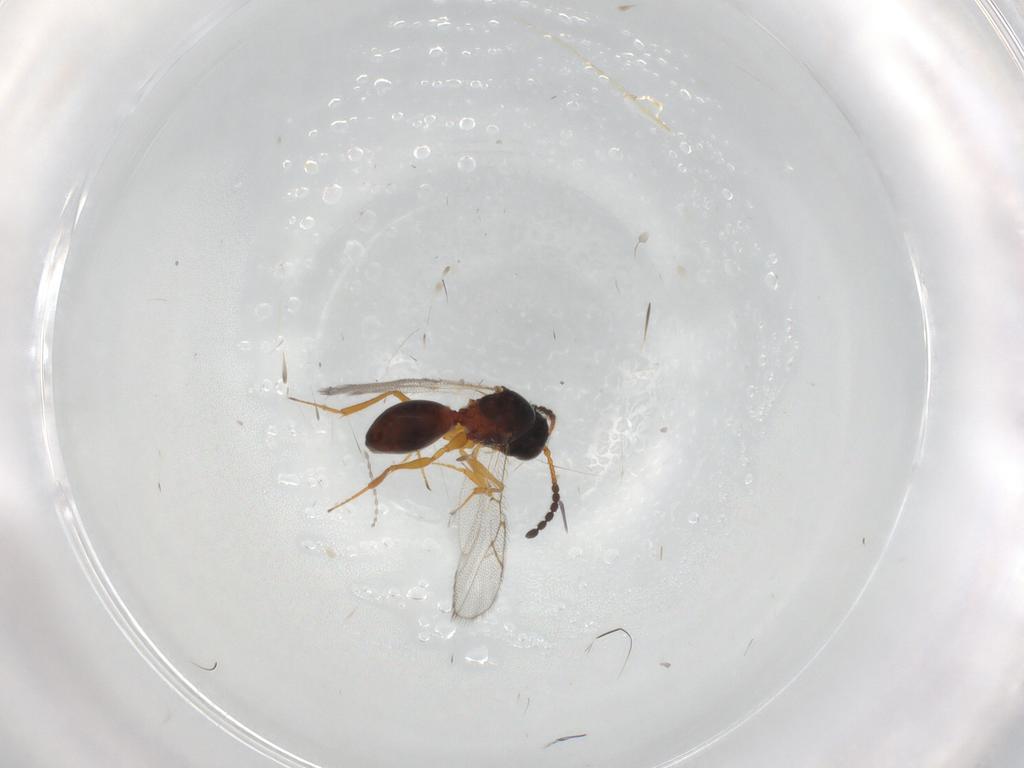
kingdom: Animalia
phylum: Arthropoda
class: Insecta
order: Hymenoptera
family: Figitidae
